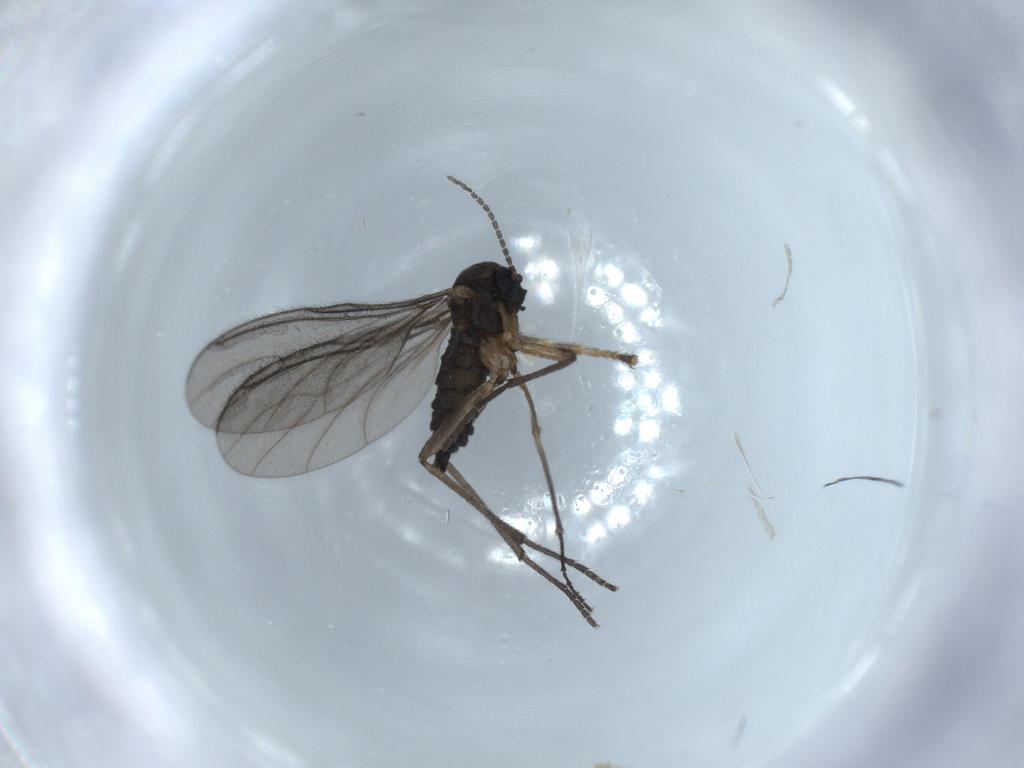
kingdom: Animalia
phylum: Arthropoda
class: Insecta
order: Diptera
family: Sciaridae
